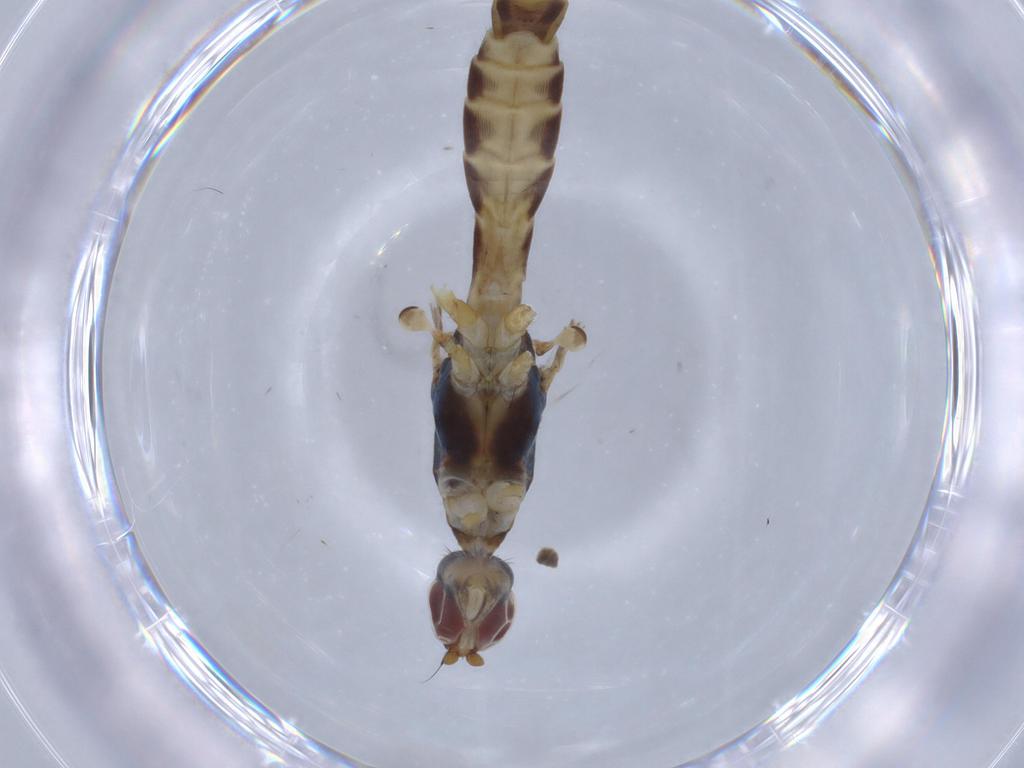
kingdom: Animalia
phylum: Arthropoda
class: Insecta
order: Diptera
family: Micropezidae
